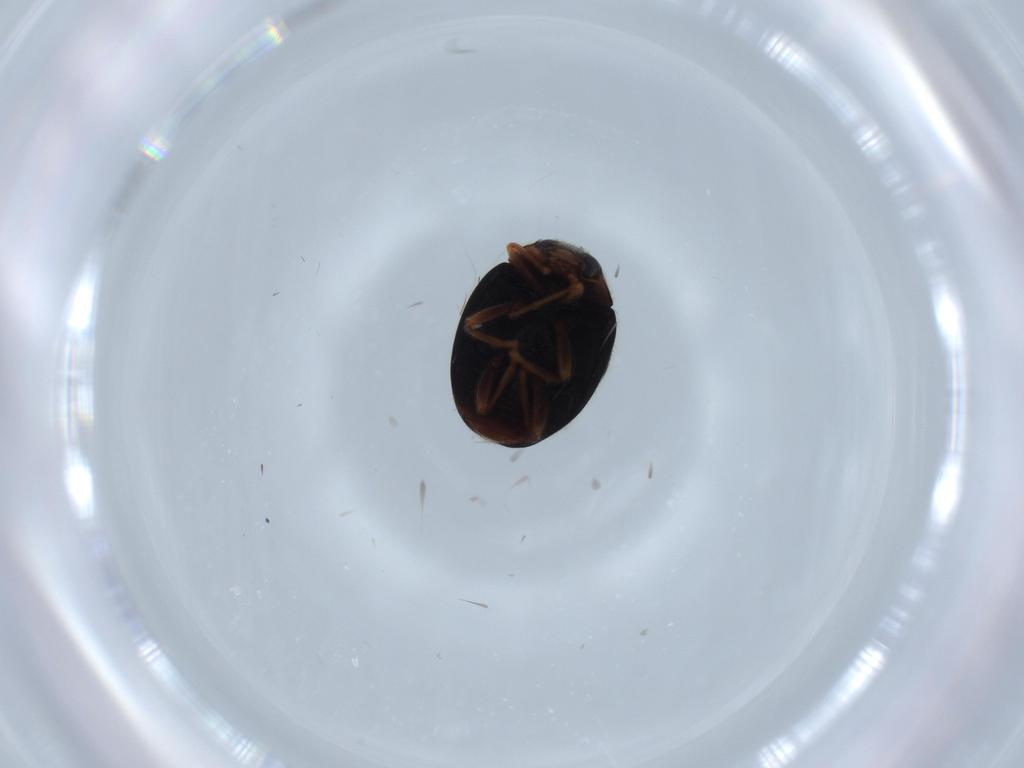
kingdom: Animalia
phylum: Arthropoda
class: Insecta
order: Coleoptera
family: Coccinellidae
